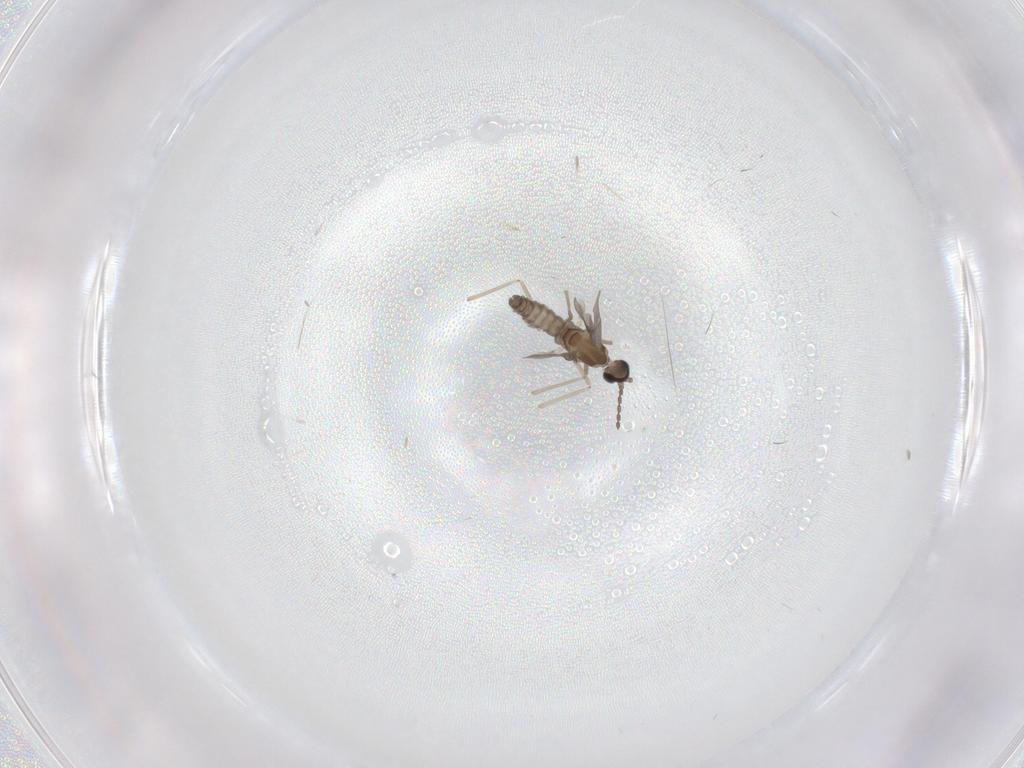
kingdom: Animalia
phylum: Arthropoda
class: Insecta
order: Diptera
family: Cecidomyiidae
